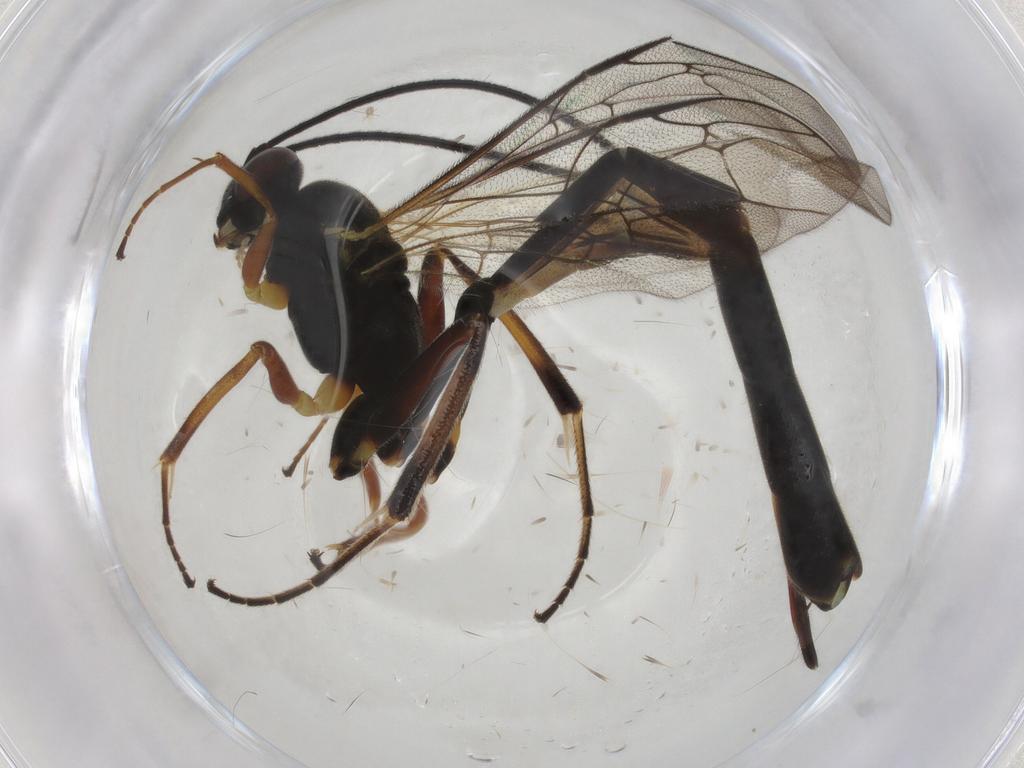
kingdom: Animalia
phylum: Arthropoda
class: Insecta
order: Hymenoptera
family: Ichneumonidae
